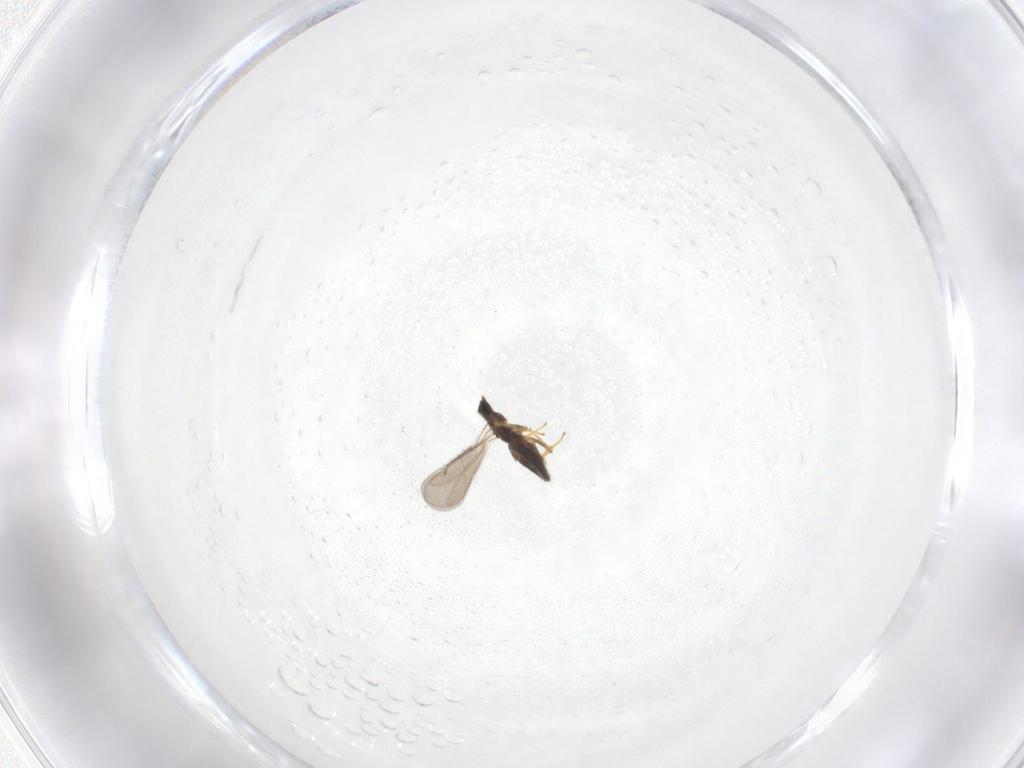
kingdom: Animalia
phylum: Arthropoda
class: Insecta
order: Hymenoptera
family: Eulophidae
